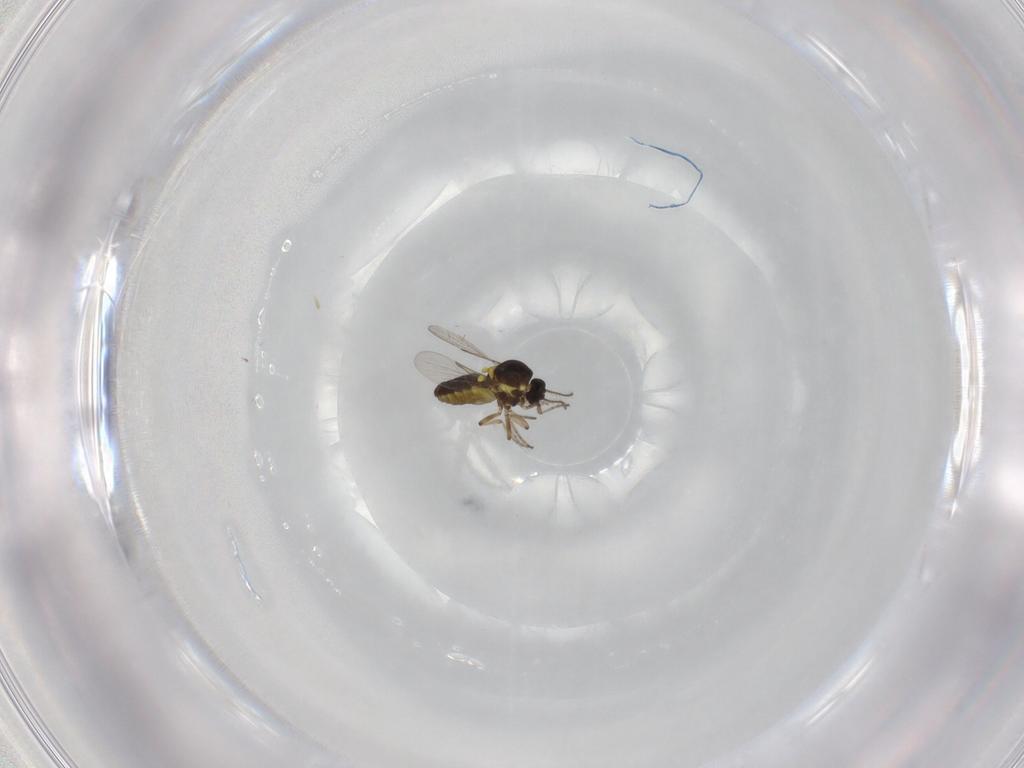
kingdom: Animalia
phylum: Arthropoda
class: Insecta
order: Diptera
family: Ceratopogonidae
